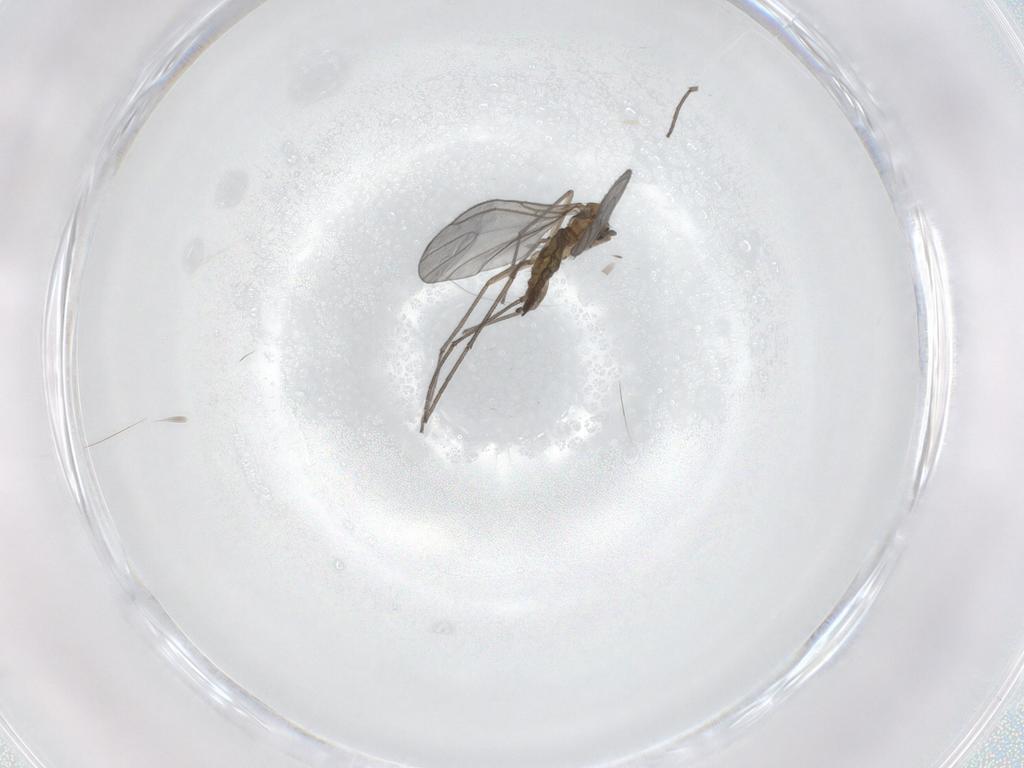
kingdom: Animalia
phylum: Arthropoda
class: Insecta
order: Diptera
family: Sciaridae
